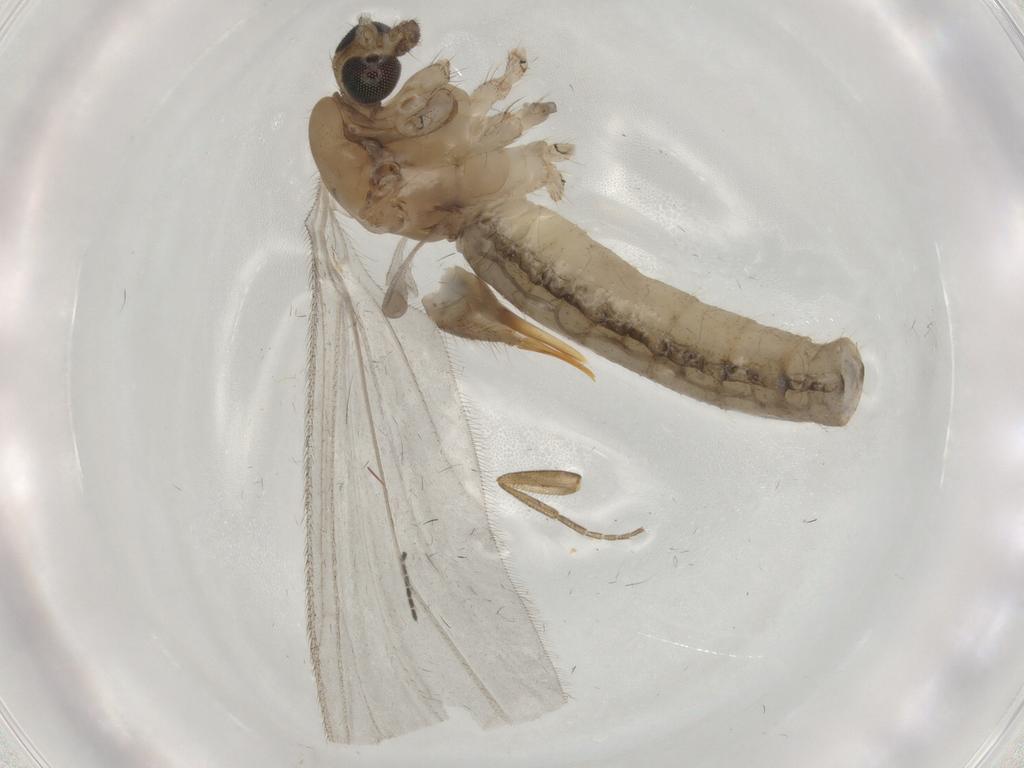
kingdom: Animalia
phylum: Arthropoda
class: Insecta
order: Diptera
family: Limoniidae
